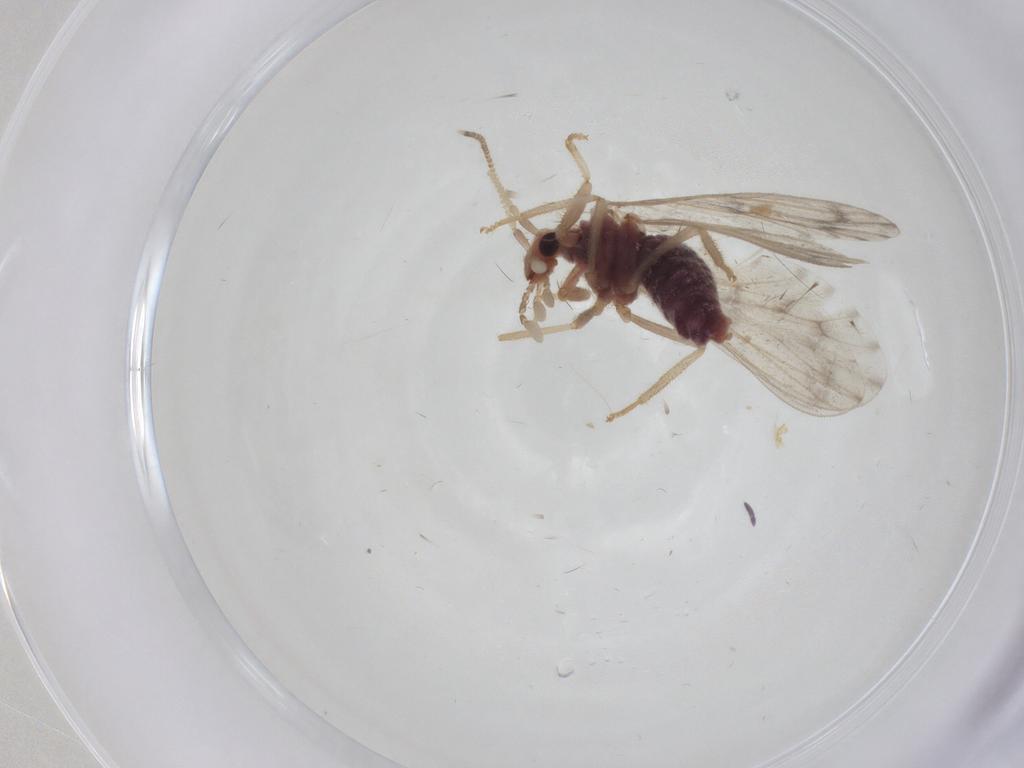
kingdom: Animalia
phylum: Arthropoda
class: Insecta
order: Neuroptera
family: Coniopterygidae
